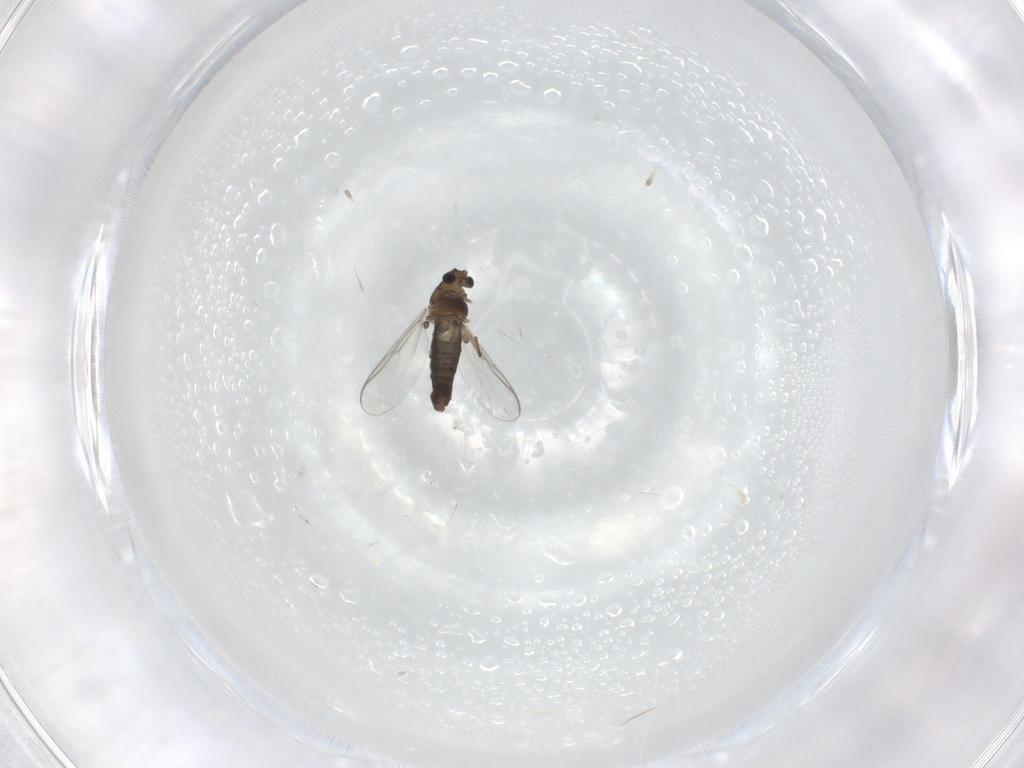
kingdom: Animalia
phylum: Arthropoda
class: Insecta
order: Diptera
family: Chironomidae
